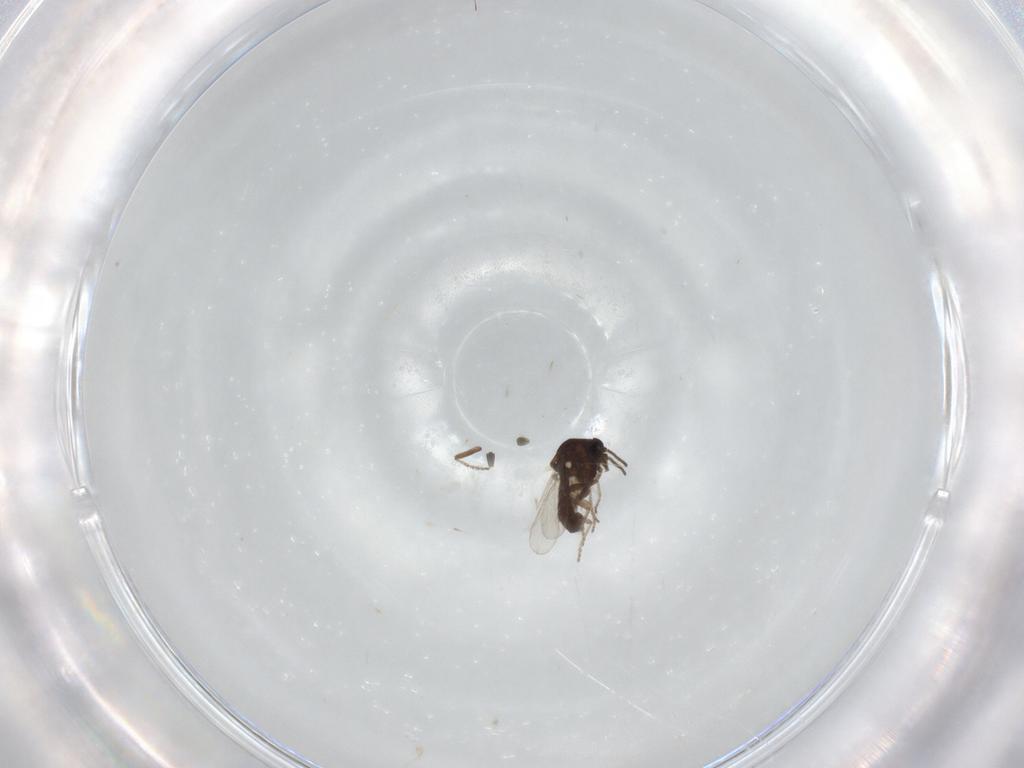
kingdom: Animalia
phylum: Arthropoda
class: Insecta
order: Diptera
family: Ceratopogonidae
